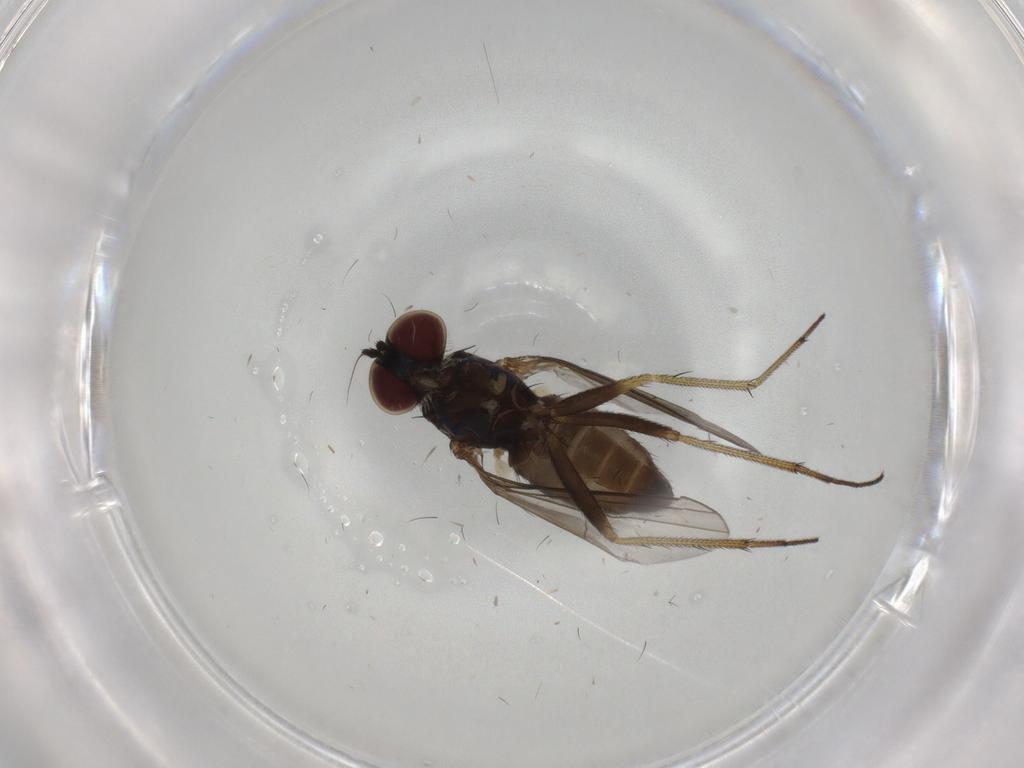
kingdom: Animalia
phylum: Arthropoda
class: Insecta
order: Diptera
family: Dolichopodidae
